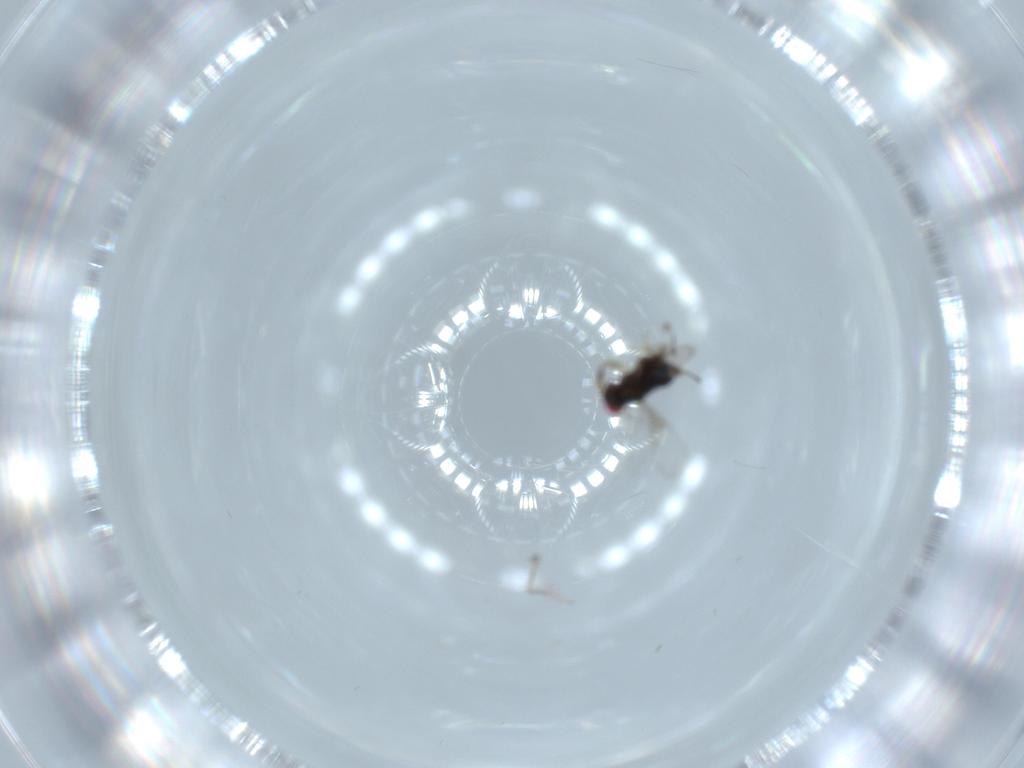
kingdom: Animalia
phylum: Arthropoda
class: Insecta
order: Hymenoptera
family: Azotidae
